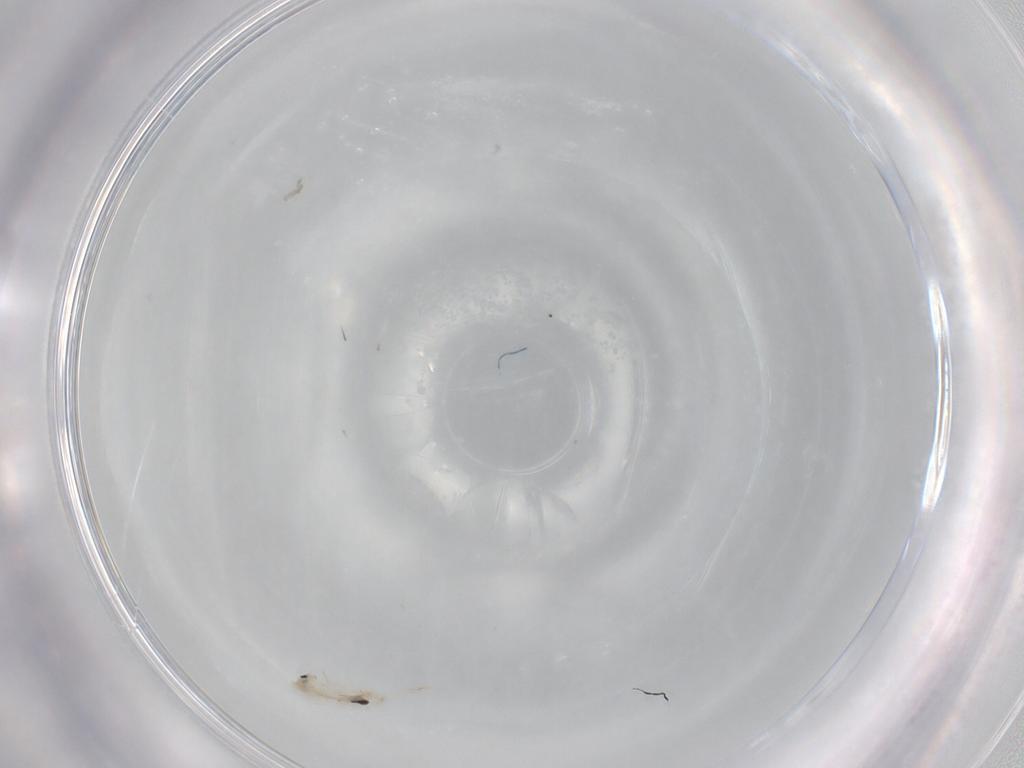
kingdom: Animalia
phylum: Arthropoda
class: Collembola
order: Entomobryomorpha
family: Entomobryidae
